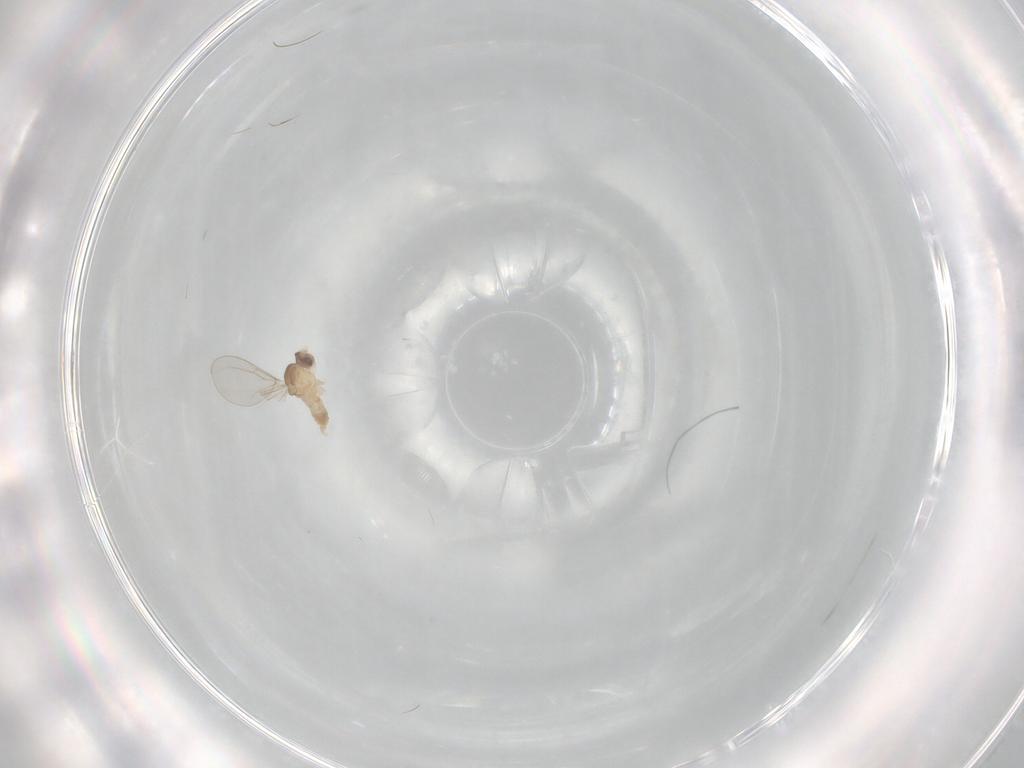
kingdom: Animalia
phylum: Arthropoda
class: Insecta
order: Diptera
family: Cecidomyiidae
